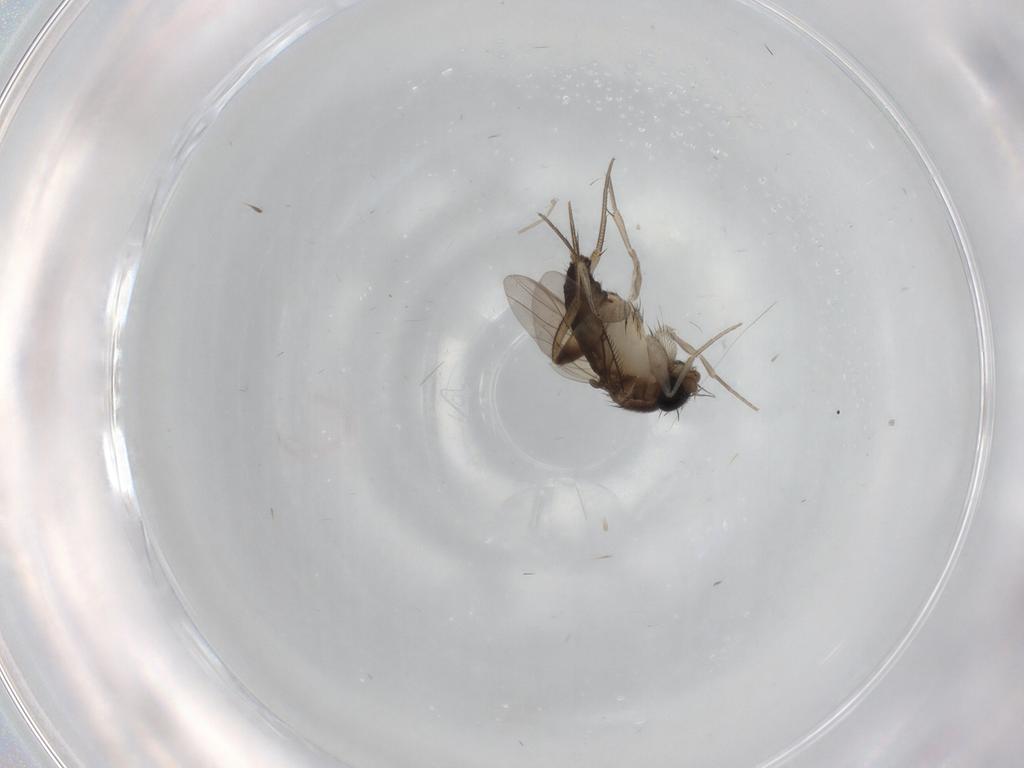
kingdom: Animalia
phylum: Arthropoda
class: Insecta
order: Diptera
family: Phoridae
